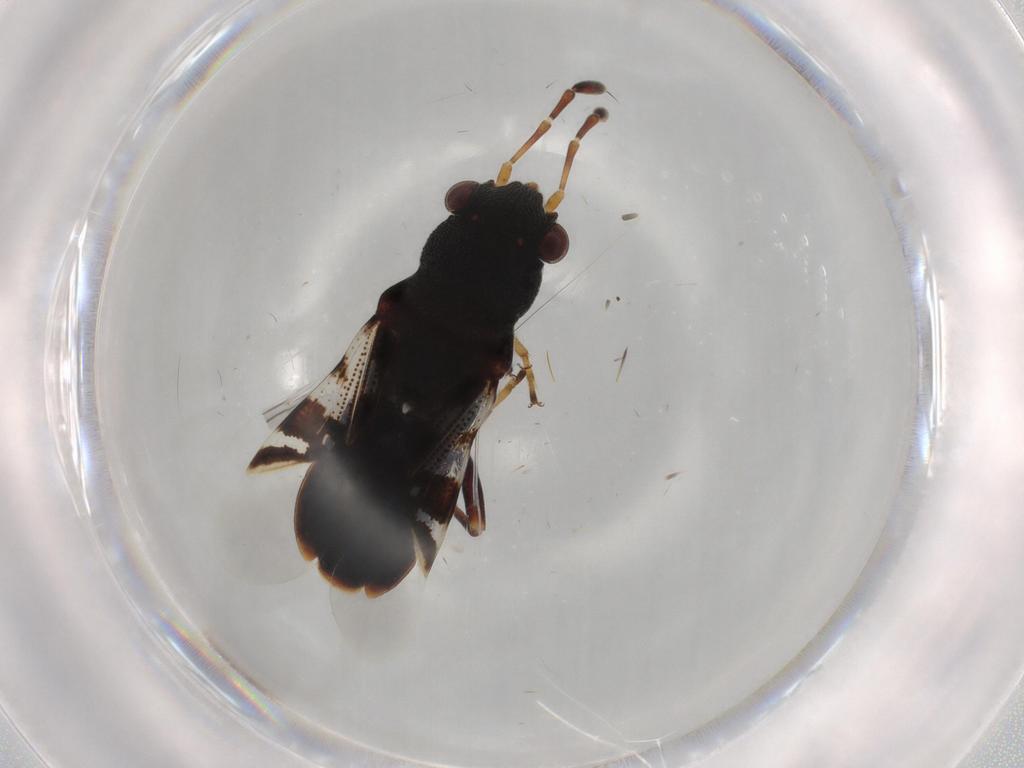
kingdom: Animalia
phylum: Arthropoda
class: Insecta
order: Hemiptera
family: Rhyparochromidae
